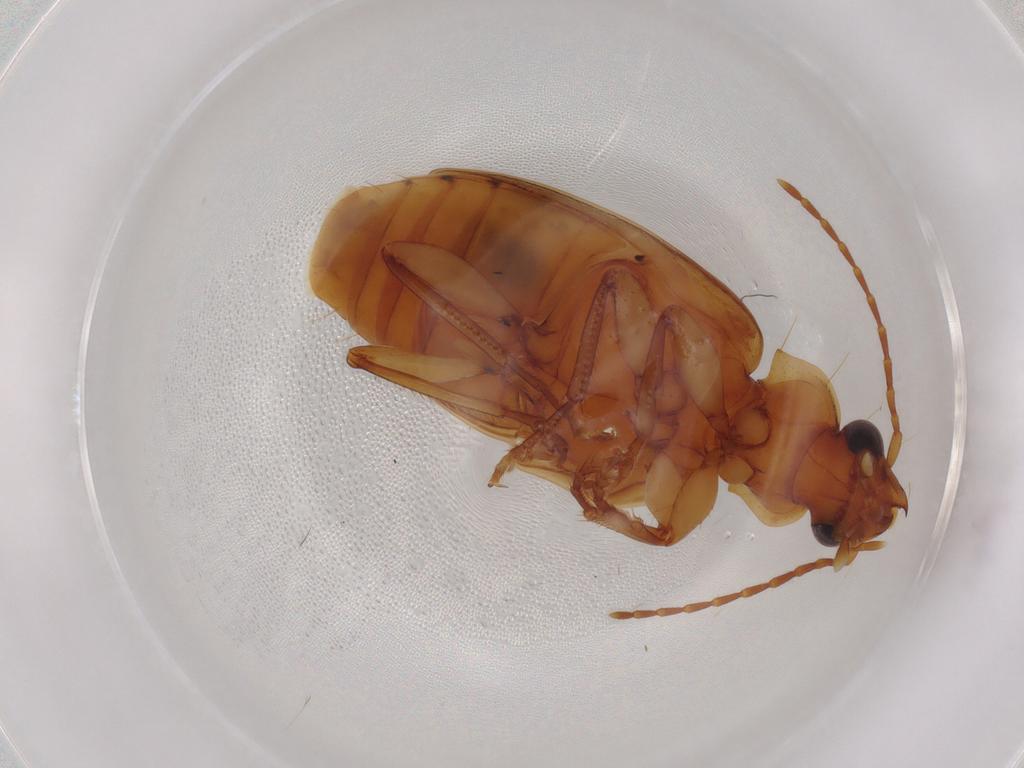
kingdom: Animalia
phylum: Arthropoda
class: Insecta
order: Coleoptera
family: Carabidae
